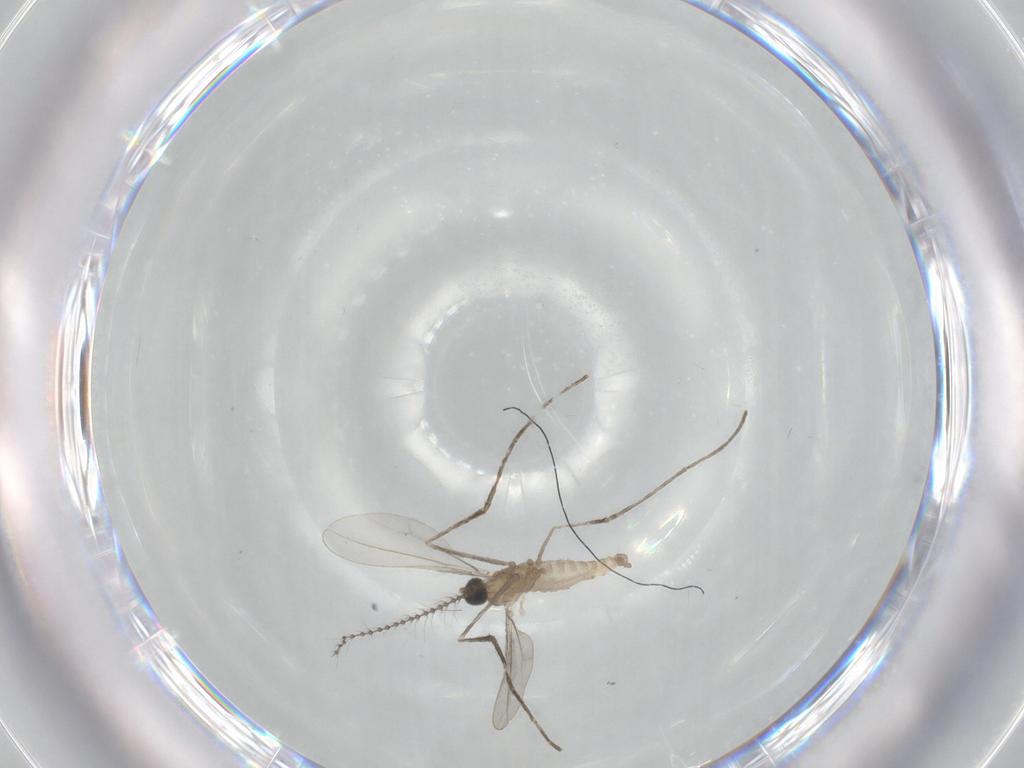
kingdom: Animalia
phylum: Arthropoda
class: Insecta
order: Diptera
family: Cecidomyiidae
